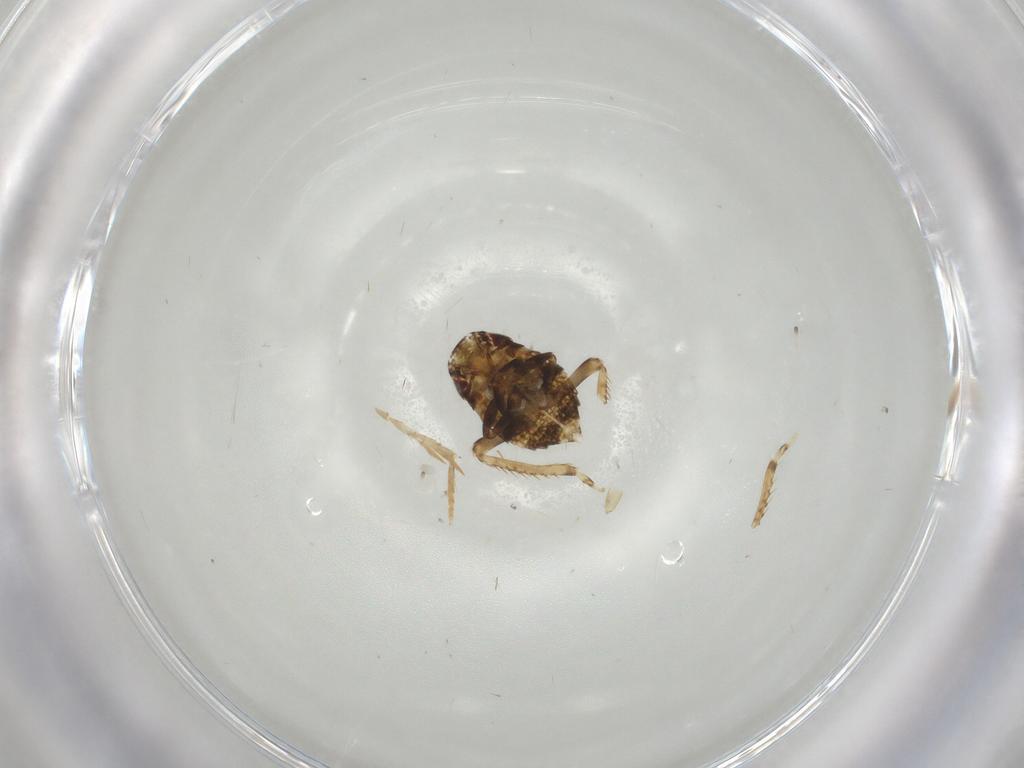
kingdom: Animalia
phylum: Arthropoda
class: Insecta
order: Hemiptera
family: Cicadellidae
